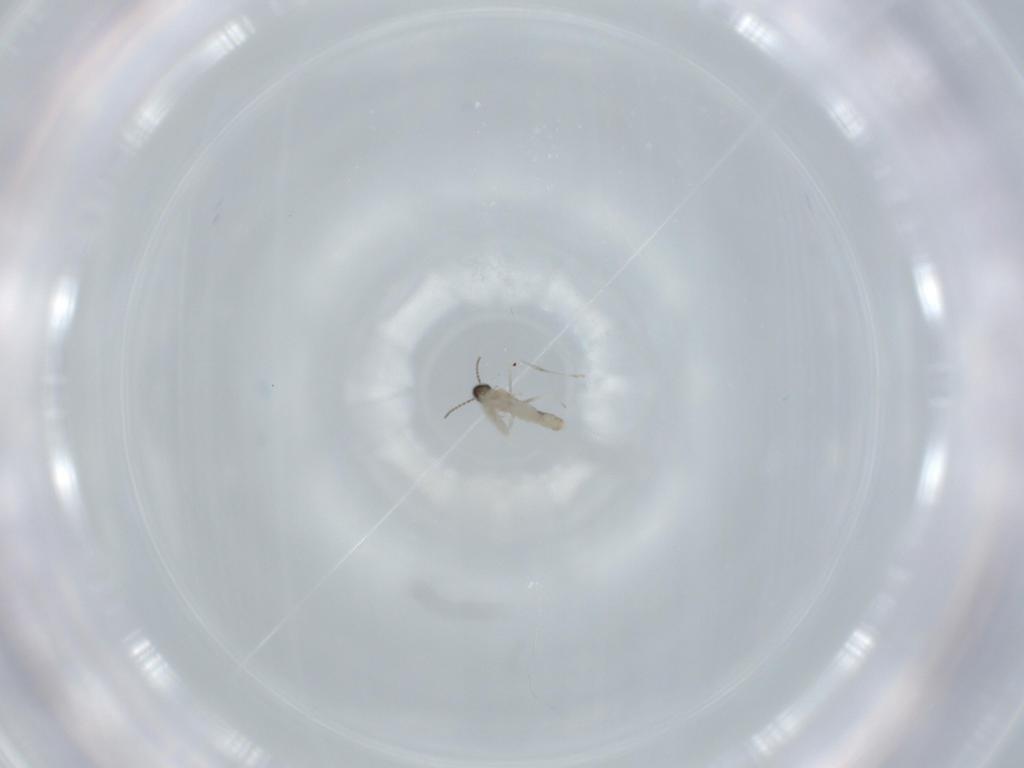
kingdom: Animalia
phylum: Arthropoda
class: Insecta
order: Diptera
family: Cecidomyiidae
